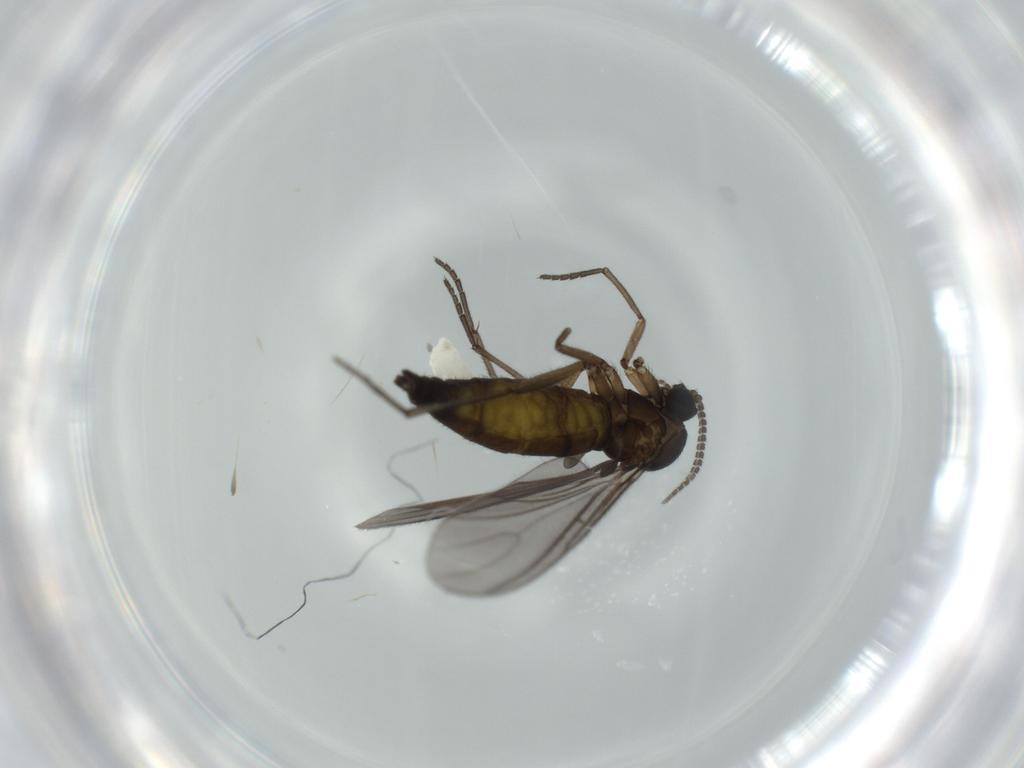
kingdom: Animalia
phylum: Arthropoda
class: Insecta
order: Diptera
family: Sciaridae
